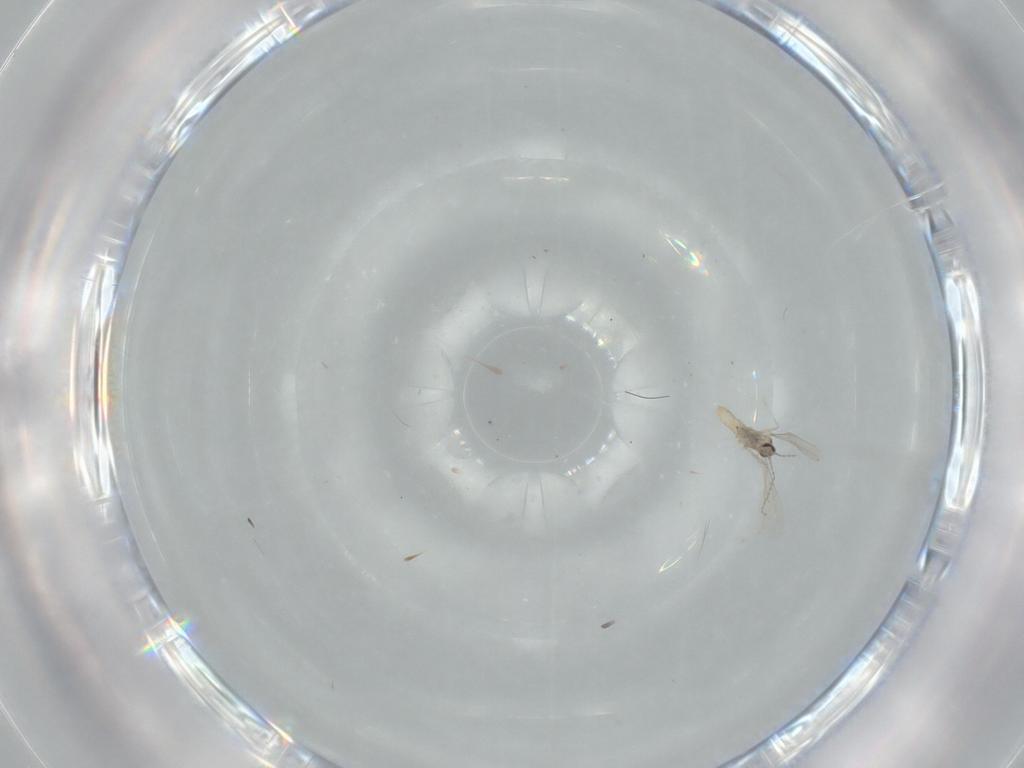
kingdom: Animalia
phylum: Arthropoda
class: Insecta
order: Diptera
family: Cecidomyiidae
